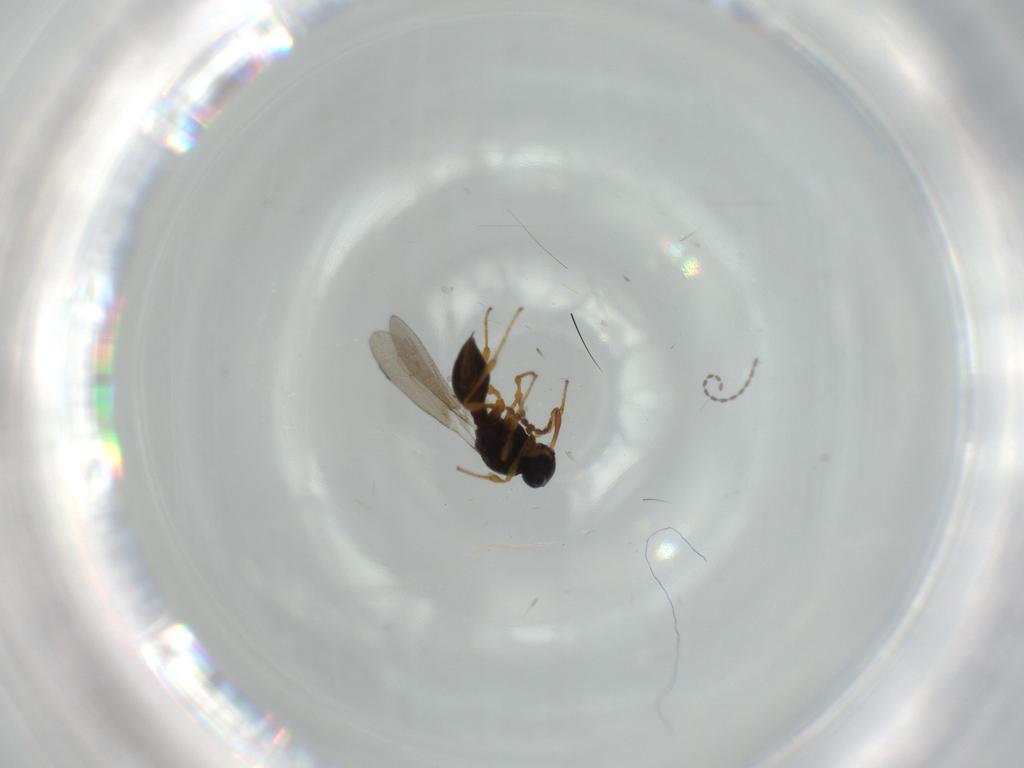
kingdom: Animalia
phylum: Arthropoda
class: Insecta
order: Diptera
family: Mythicomyiidae
